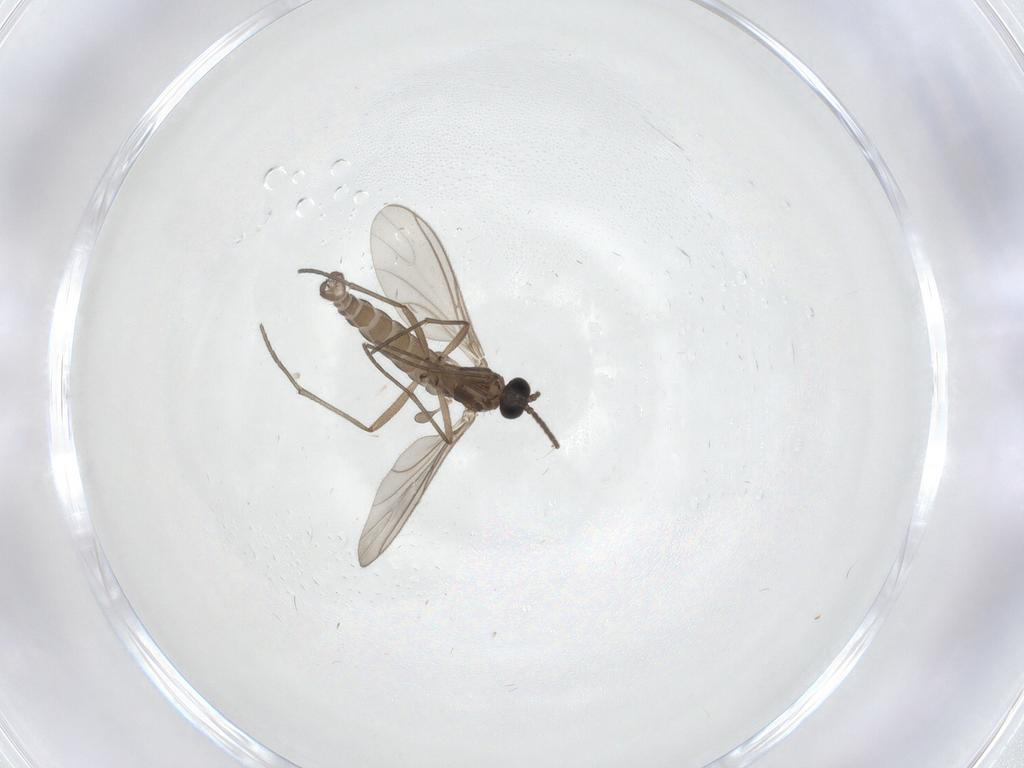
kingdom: Animalia
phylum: Arthropoda
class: Insecta
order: Diptera
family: Sciaridae
